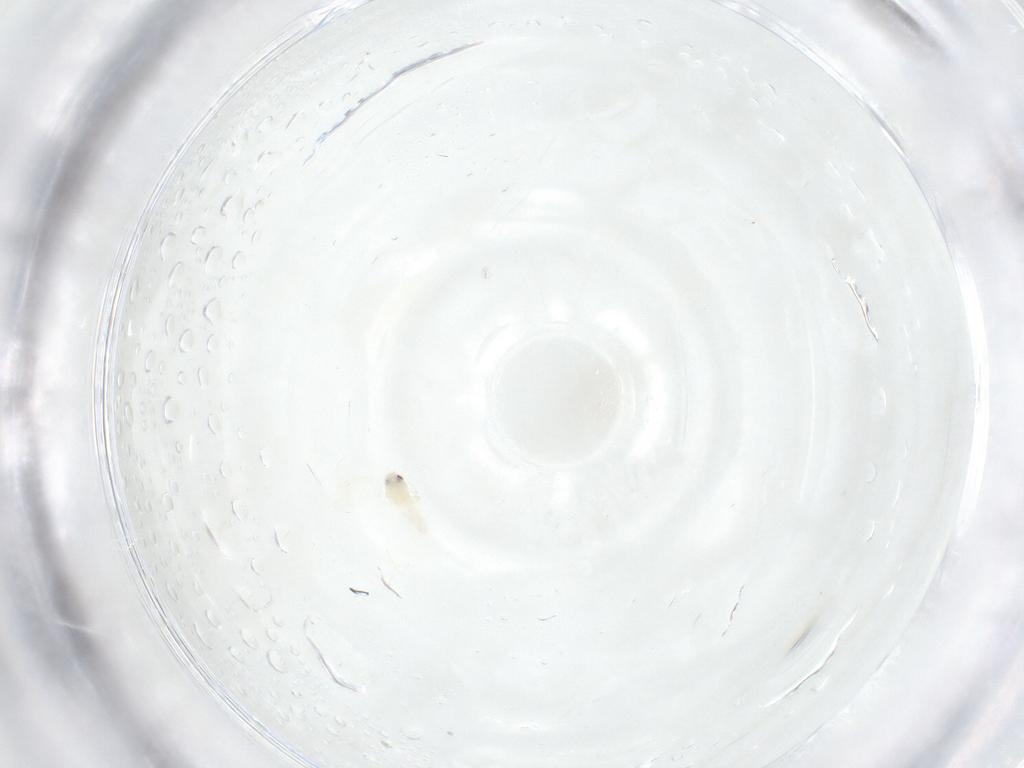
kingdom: Animalia
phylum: Arthropoda
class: Insecta
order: Hemiptera
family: Aleyrodidae
